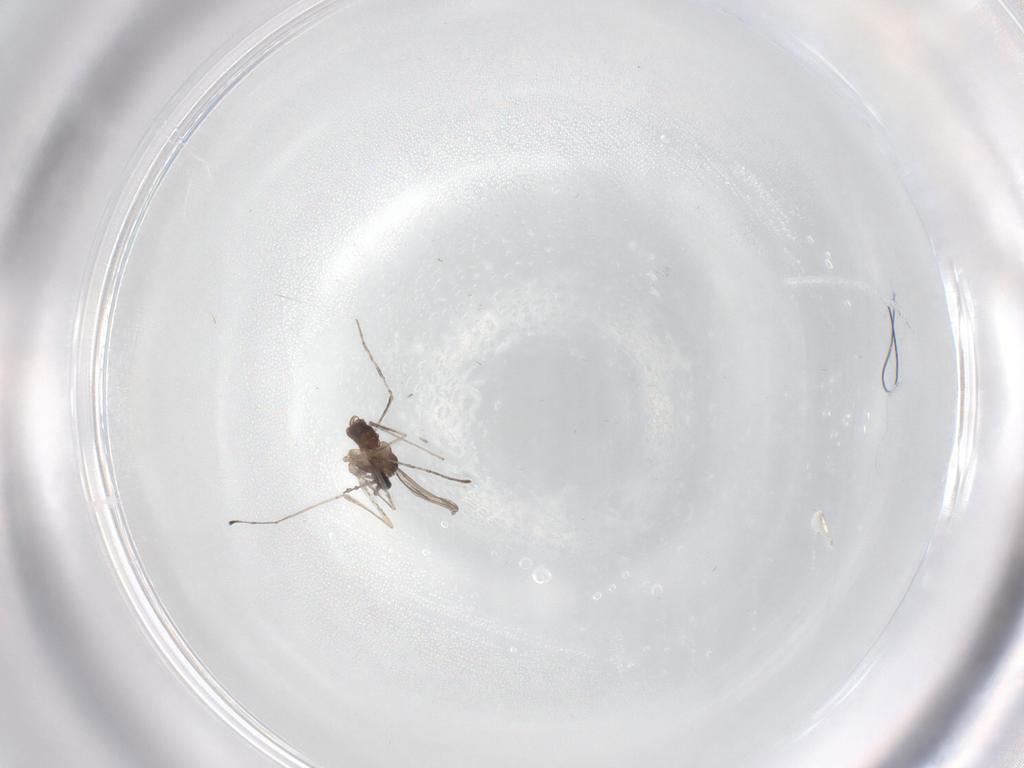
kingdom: Animalia
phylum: Arthropoda
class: Insecta
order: Diptera
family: Cecidomyiidae
